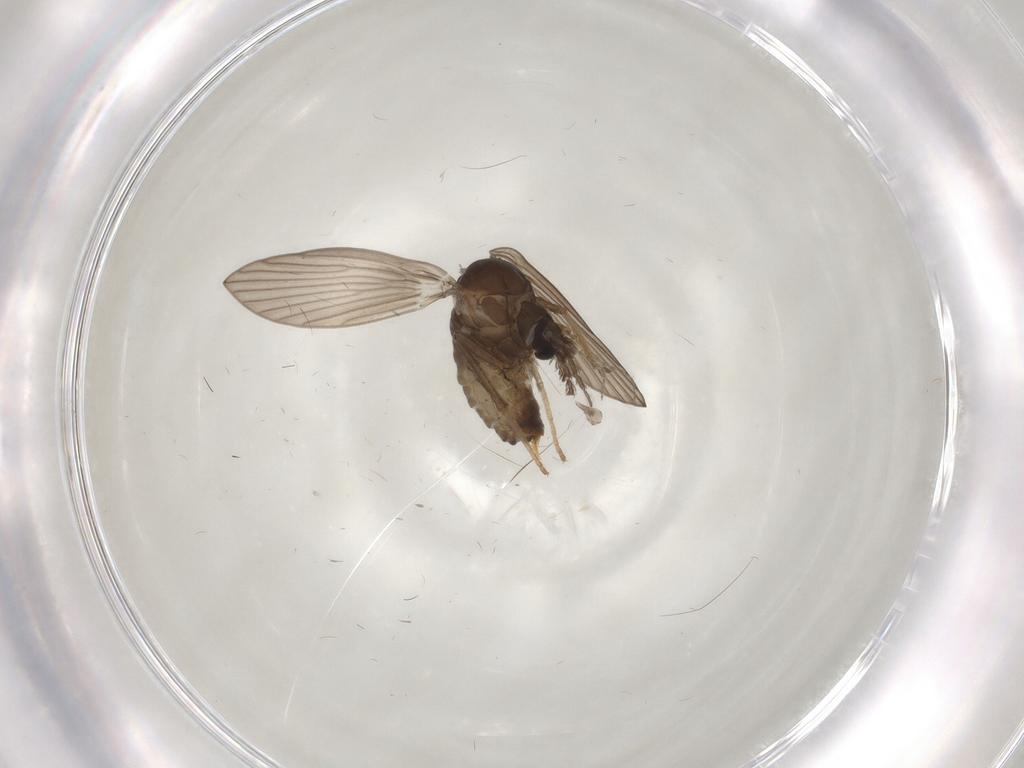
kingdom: Animalia
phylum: Arthropoda
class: Insecta
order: Diptera
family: Psychodidae
